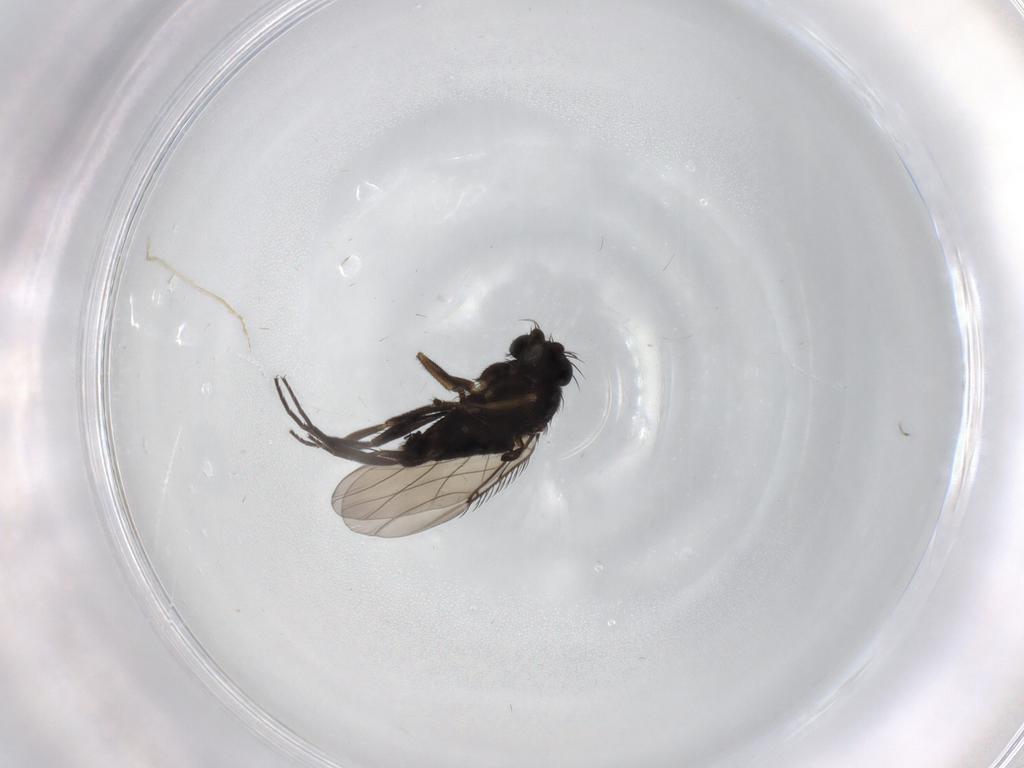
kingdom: Animalia
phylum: Arthropoda
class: Insecta
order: Diptera
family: Phoridae
